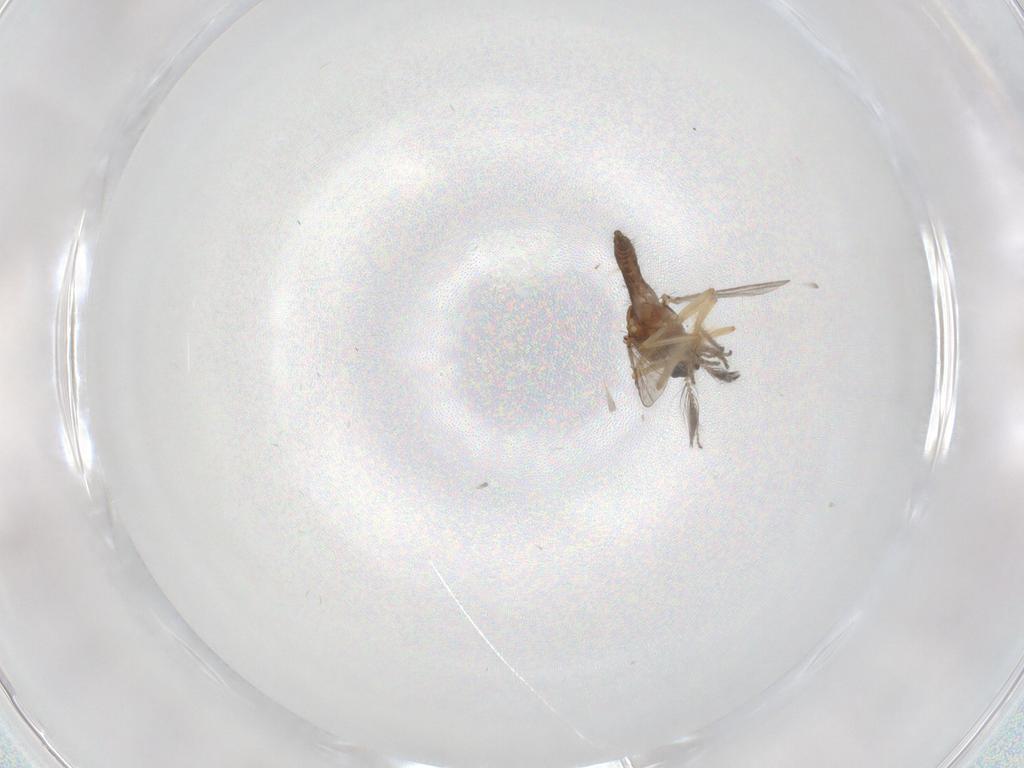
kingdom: Animalia
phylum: Arthropoda
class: Insecta
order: Diptera
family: Ceratopogonidae
